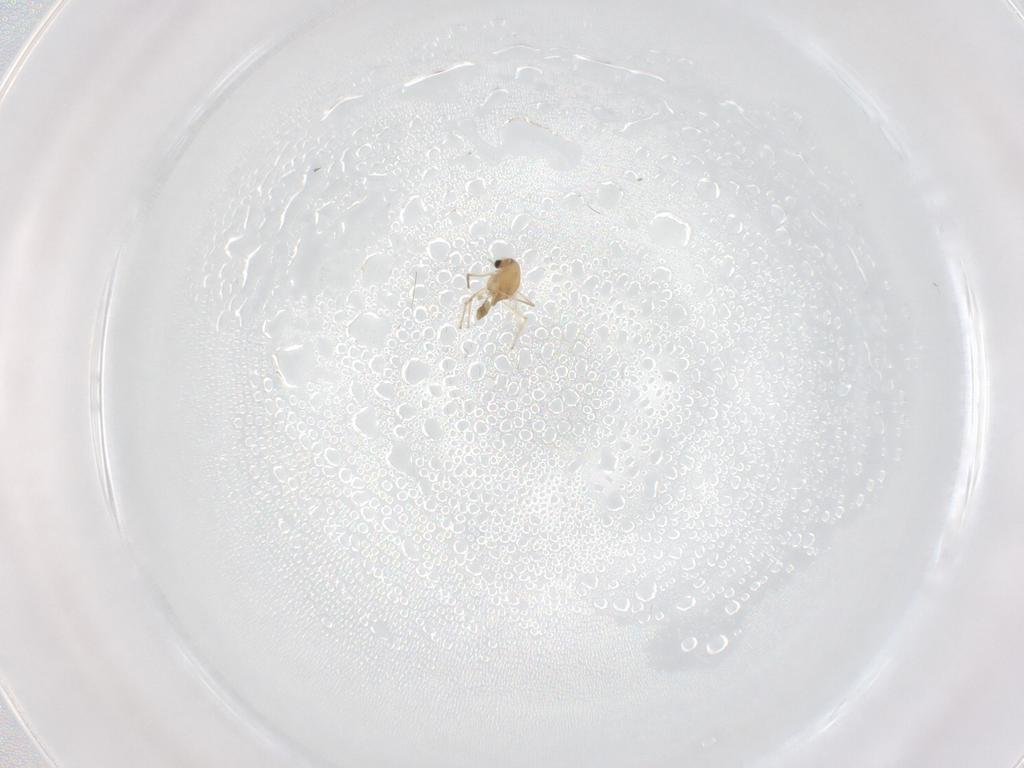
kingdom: Animalia
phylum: Arthropoda
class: Insecta
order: Diptera
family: Chironomidae
